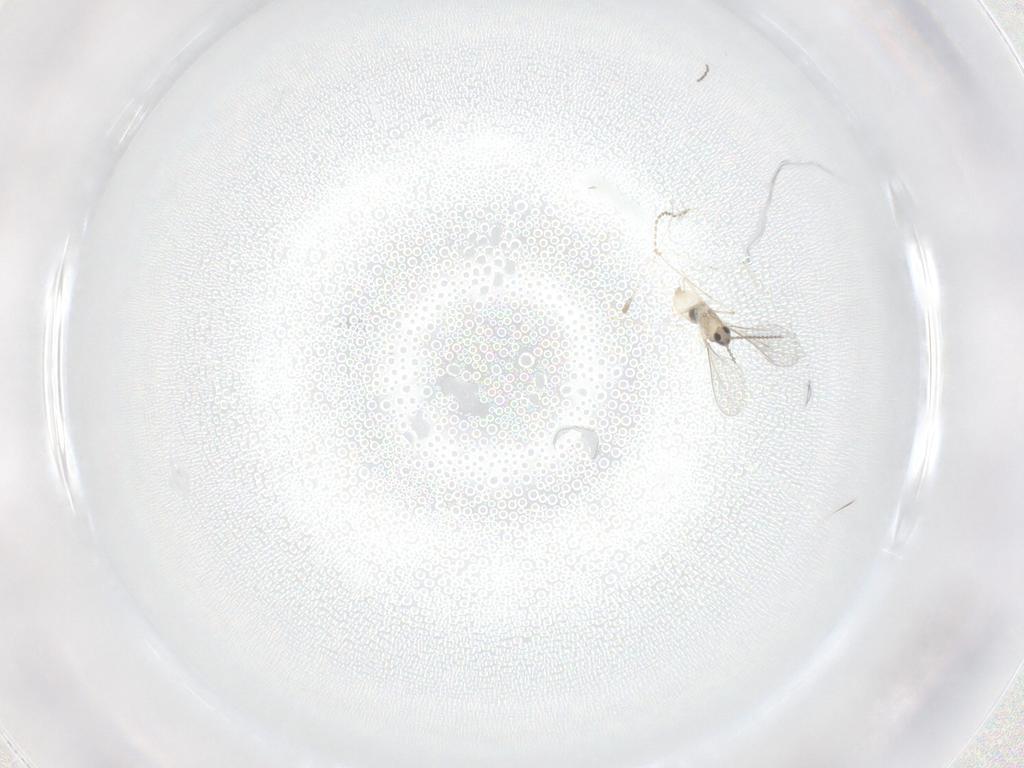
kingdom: Animalia
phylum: Arthropoda
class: Insecta
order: Diptera
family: Cecidomyiidae
